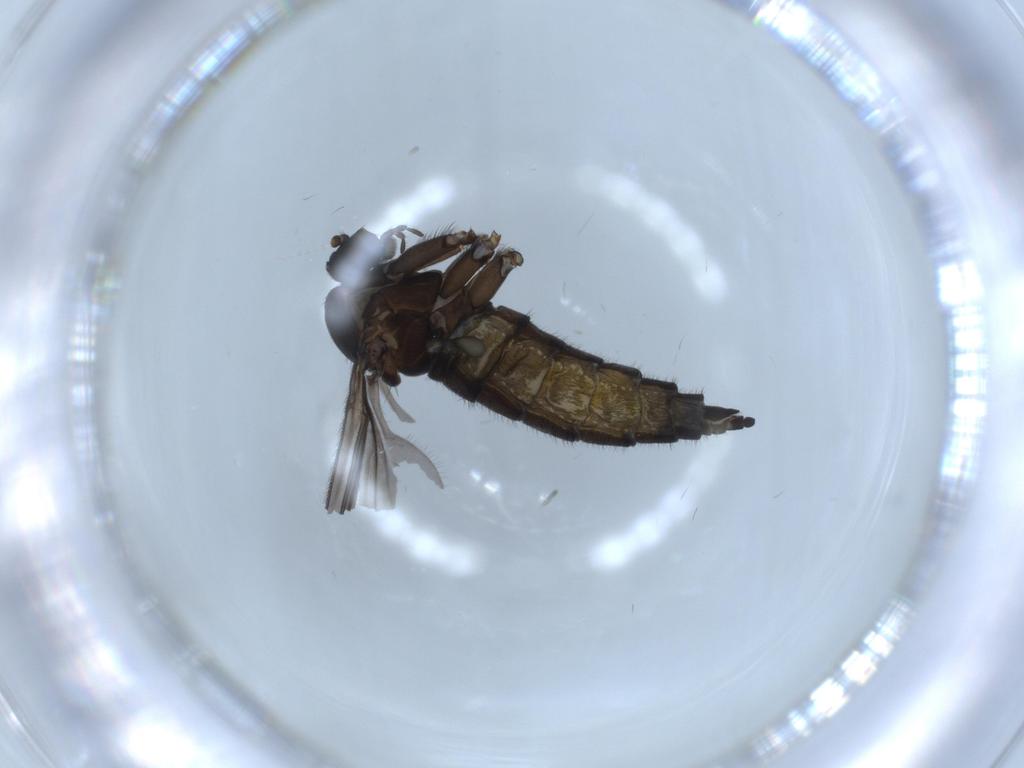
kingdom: Animalia
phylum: Arthropoda
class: Insecta
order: Diptera
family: Sciaridae
